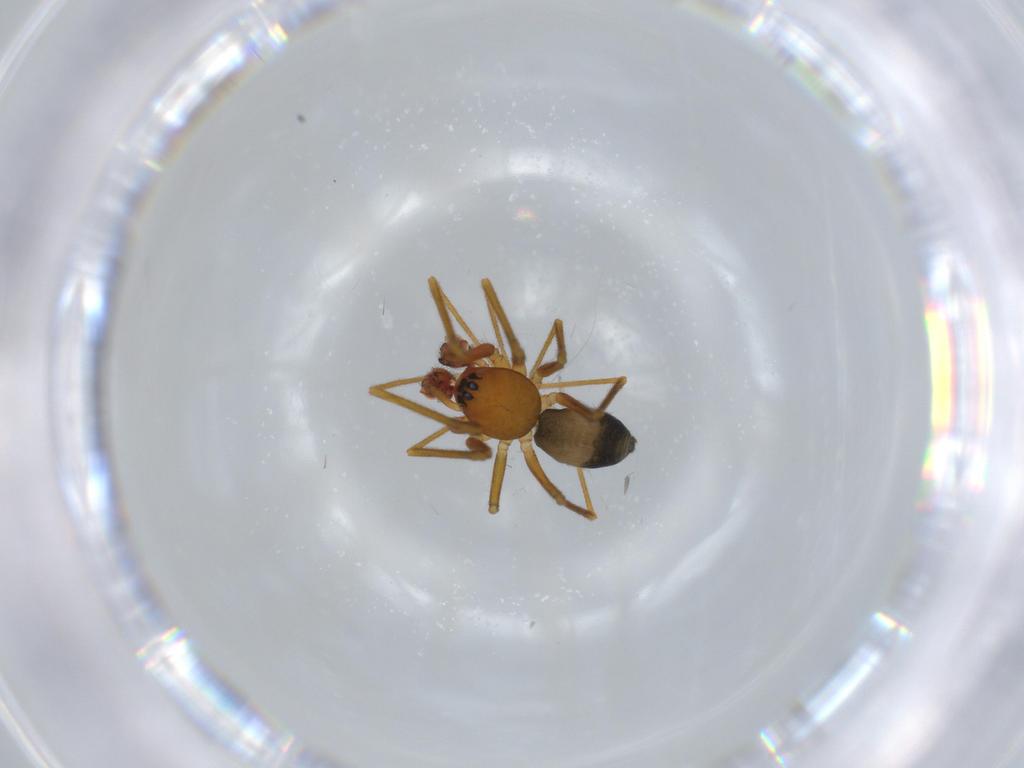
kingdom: Animalia
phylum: Arthropoda
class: Arachnida
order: Araneae
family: Linyphiidae
